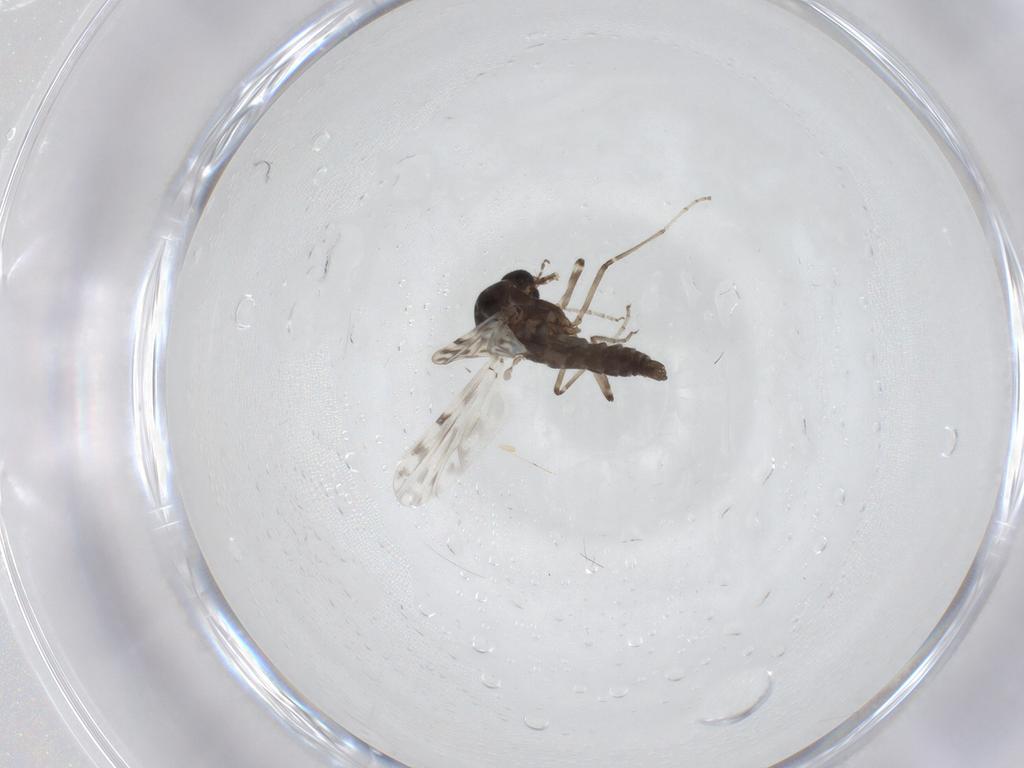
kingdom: Animalia
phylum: Arthropoda
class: Insecta
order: Diptera
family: Ceratopogonidae
